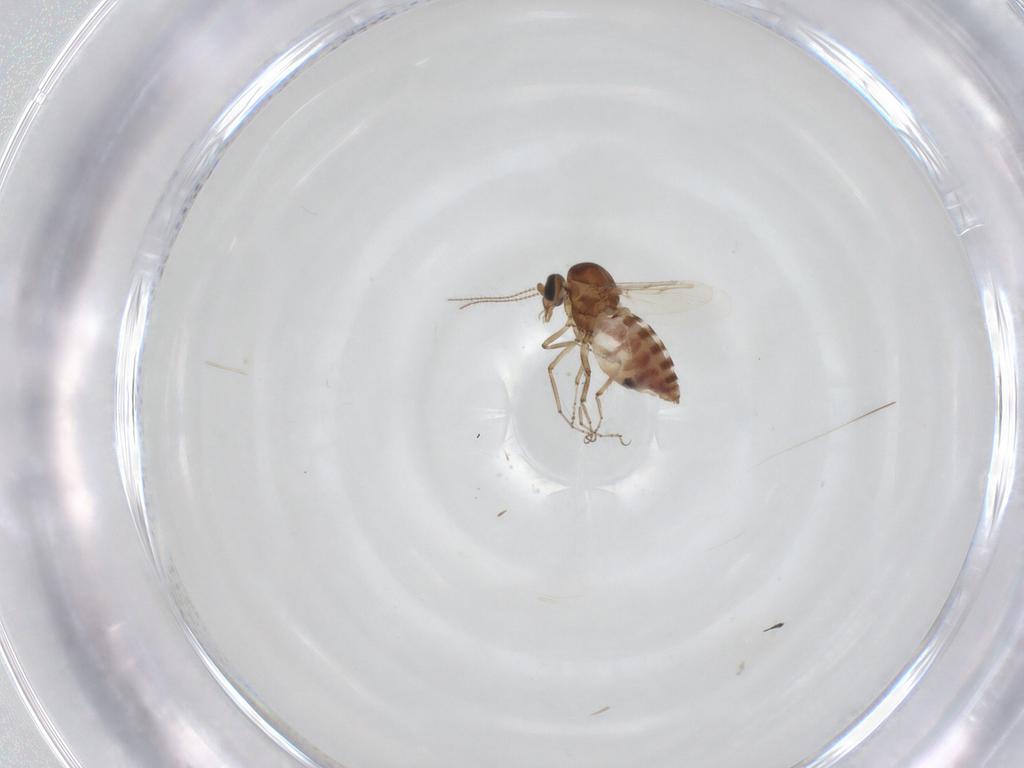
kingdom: Animalia
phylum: Arthropoda
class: Insecta
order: Diptera
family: Ceratopogonidae
